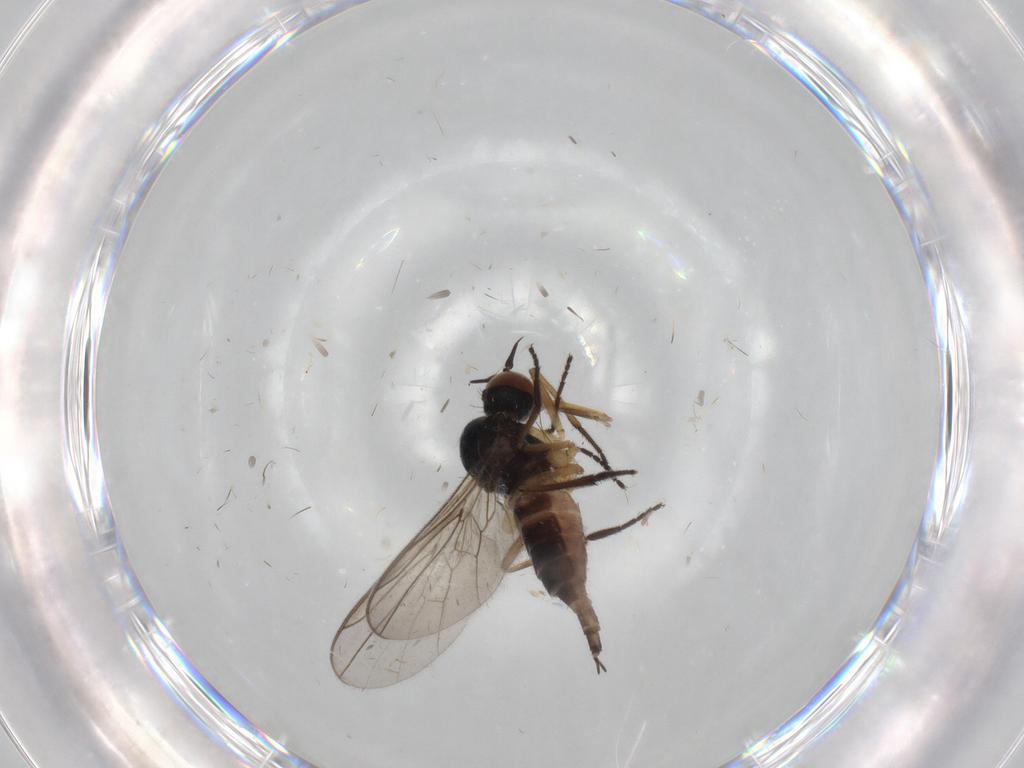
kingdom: Animalia
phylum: Arthropoda
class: Insecta
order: Diptera
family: Empididae
